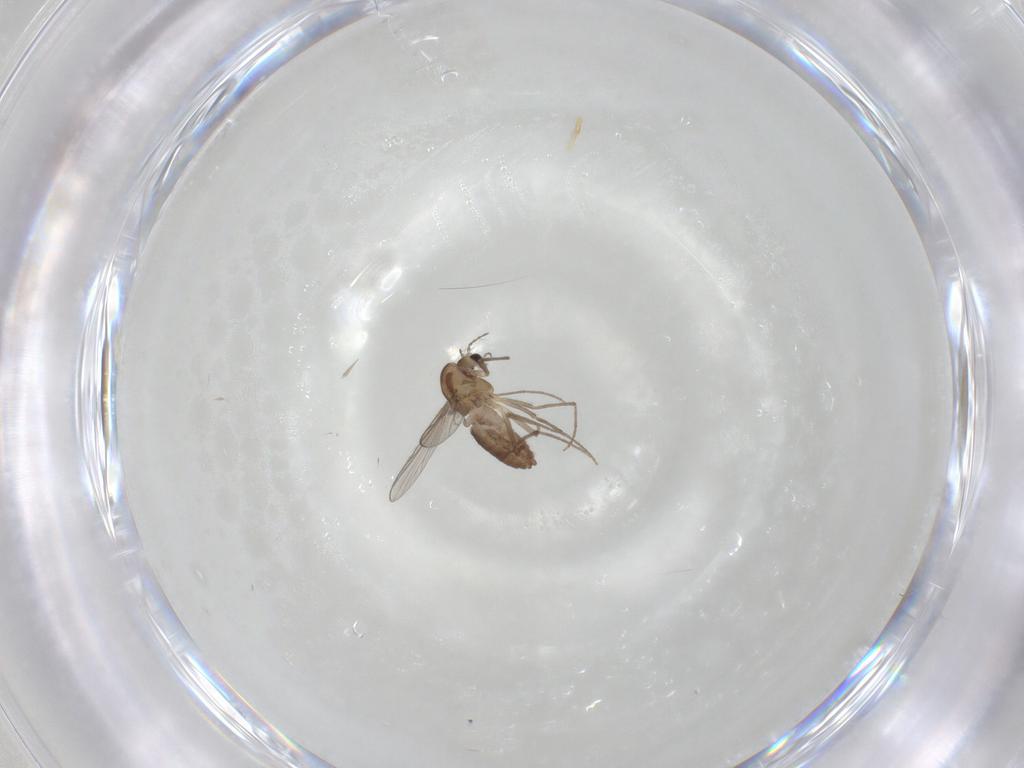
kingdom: Animalia
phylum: Arthropoda
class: Insecta
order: Diptera
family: Chironomidae
